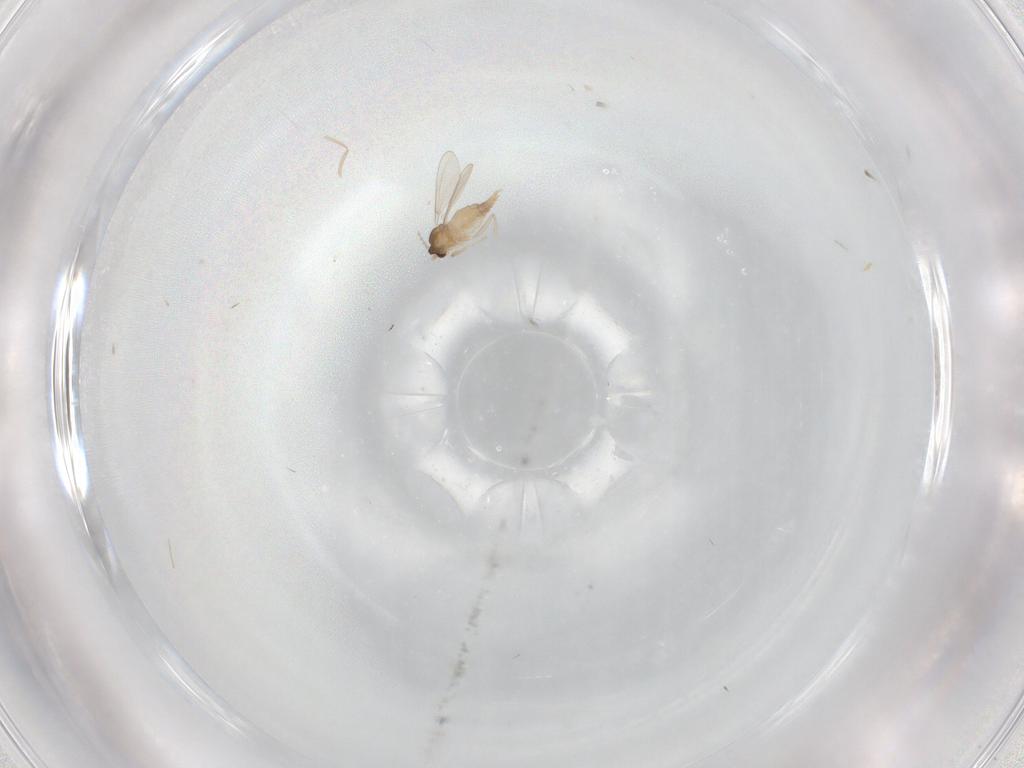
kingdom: Animalia
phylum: Arthropoda
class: Insecta
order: Diptera
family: Cecidomyiidae
